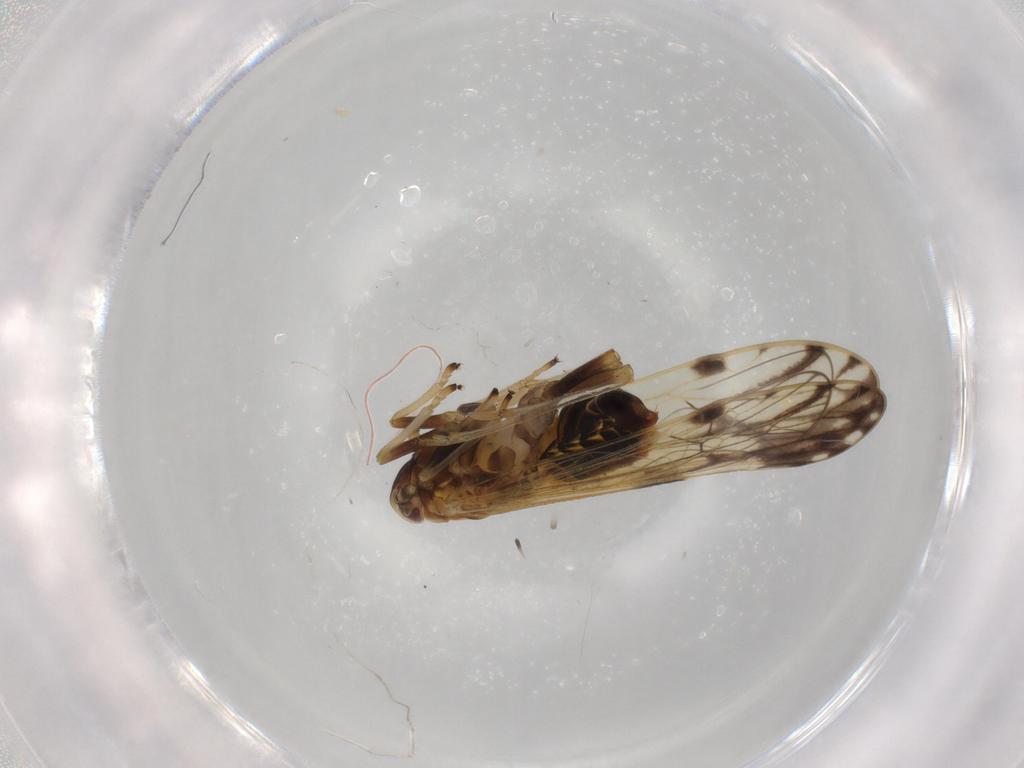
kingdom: Animalia
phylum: Arthropoda
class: Insecta
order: Hemiptera
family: Delphacidae
